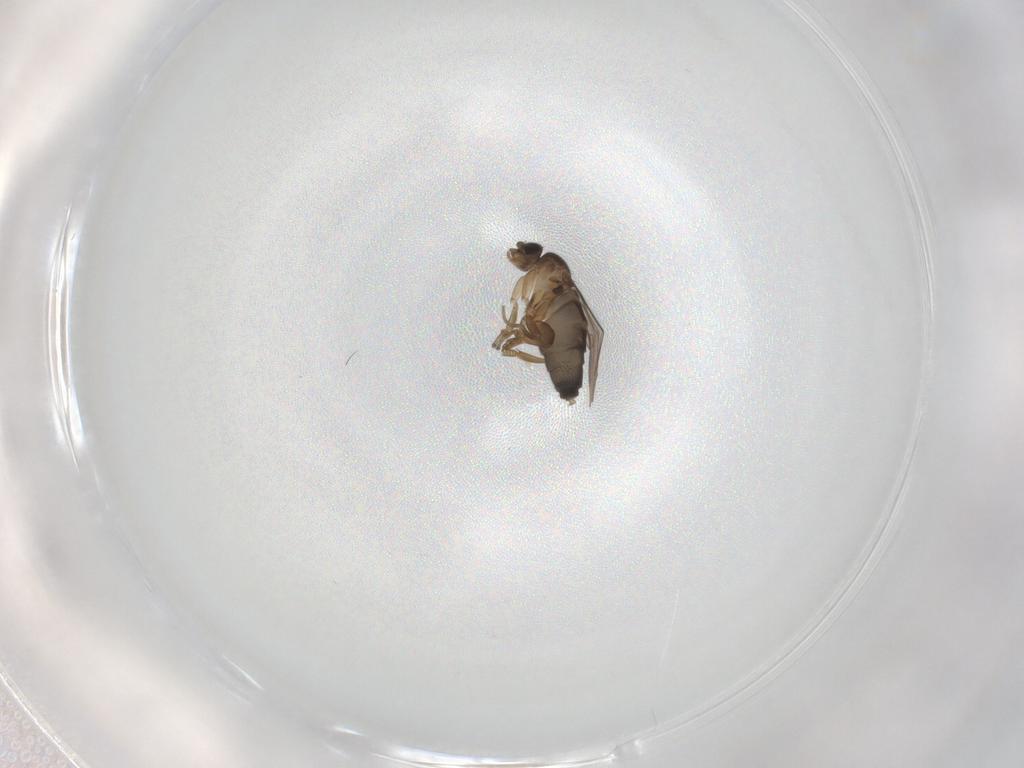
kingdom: Animalia
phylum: Arthropoda
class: Insecta
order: Diptera
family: Phoridae
